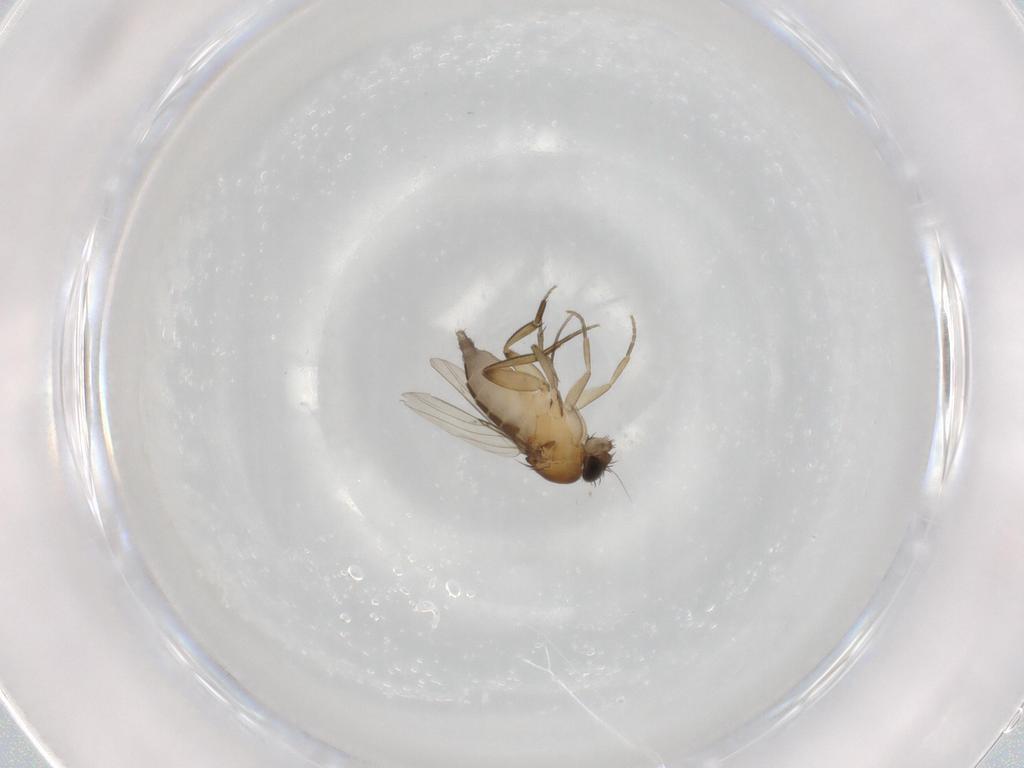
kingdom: Animalia
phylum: Arthropoda
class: Insecta
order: Diptera
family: Phoridae
